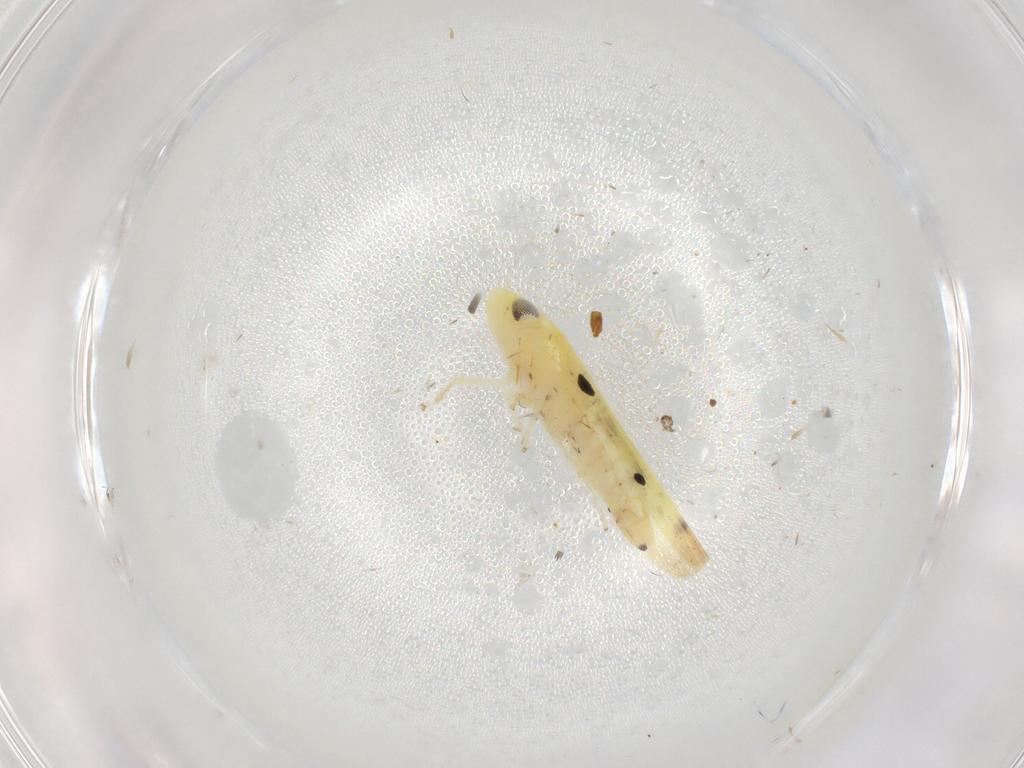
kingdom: Animalia
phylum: Arthropoda
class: Insecta
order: Hemiptera
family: Cicadellidae
